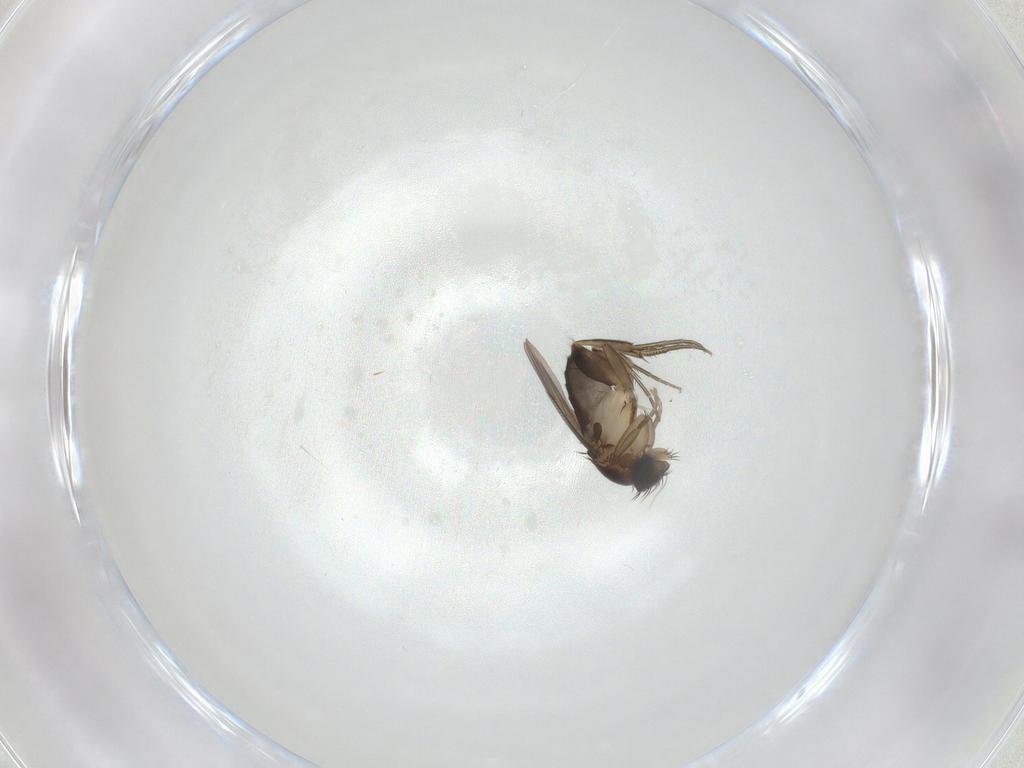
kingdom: Animalia
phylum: Arthropoda
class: Insecta
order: Diptera
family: Phoridae
